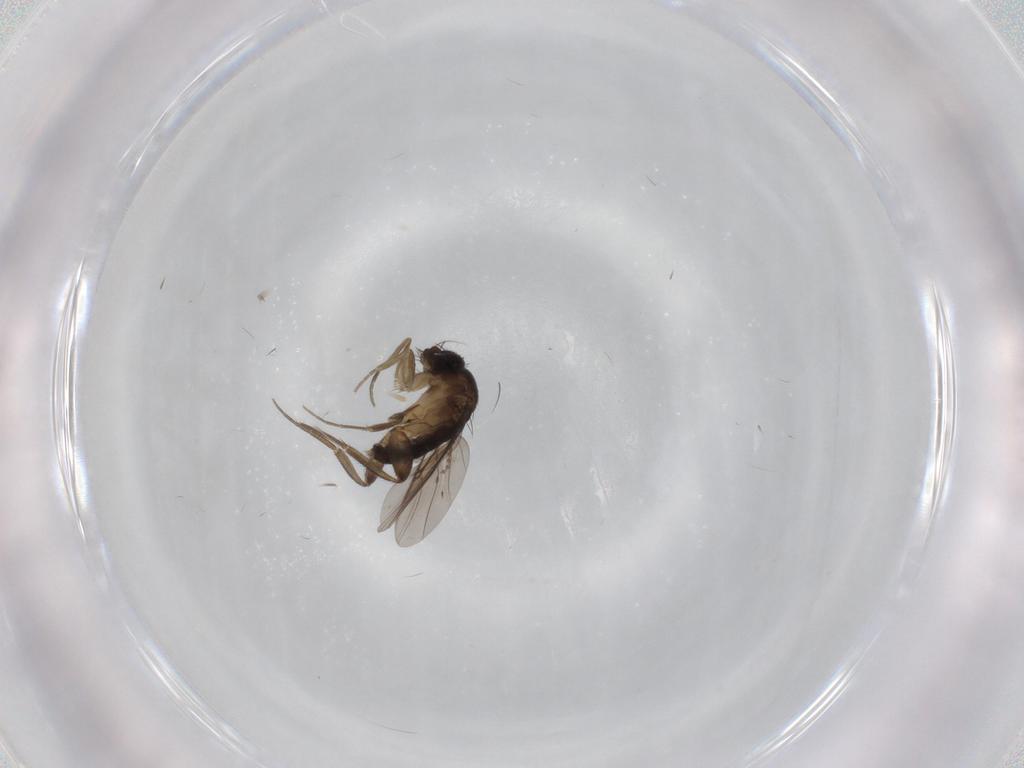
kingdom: Animalia
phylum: Arthropoda
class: Insecta
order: Diptera
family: Phoridae
